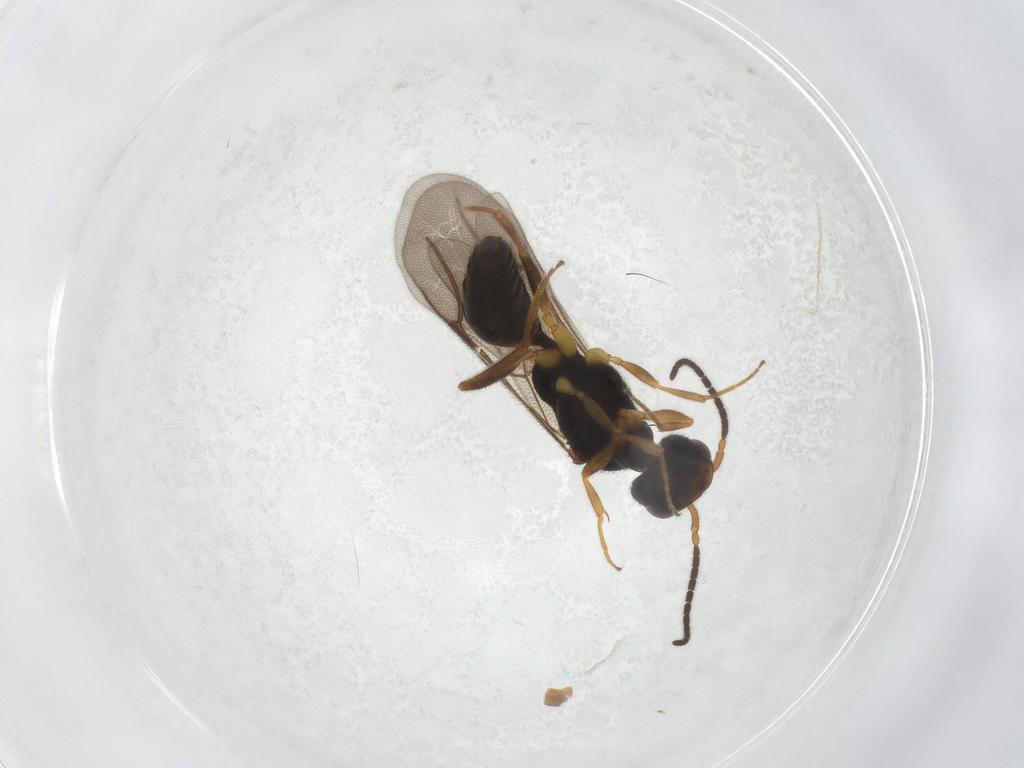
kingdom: Animalia
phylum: Arthropoda
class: Insecta
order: Hymenoptera
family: Bethylidae
